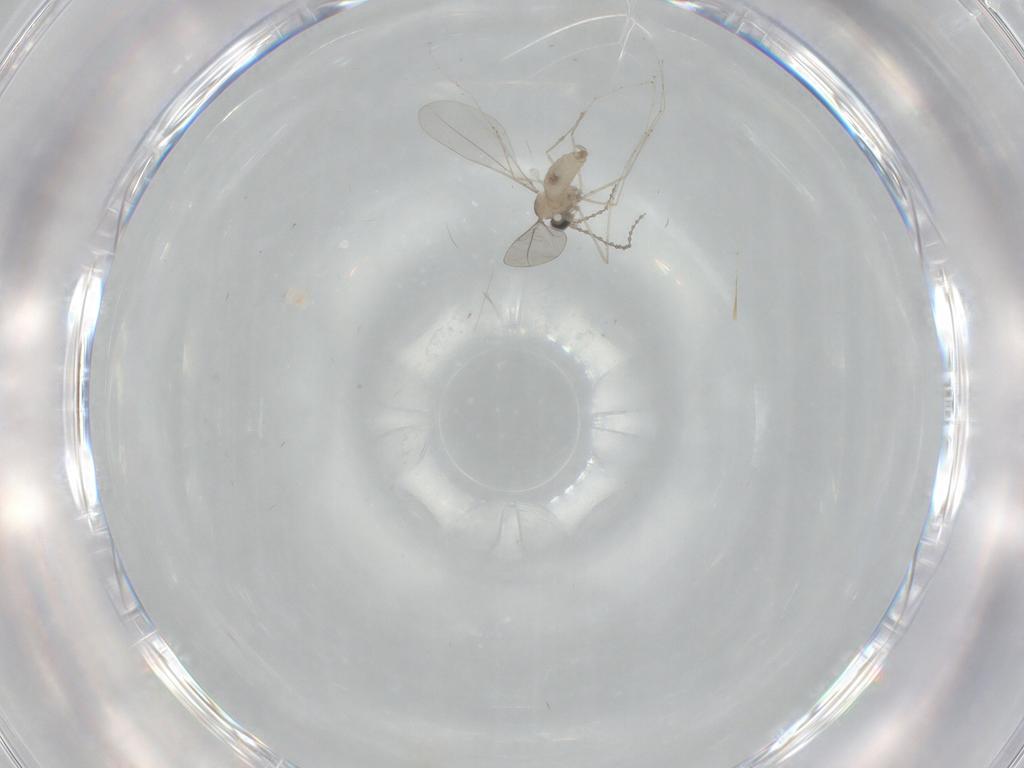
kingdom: Animalia
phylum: Arthropoda
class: Insecta
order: Diptera
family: Cecidomyiidae
